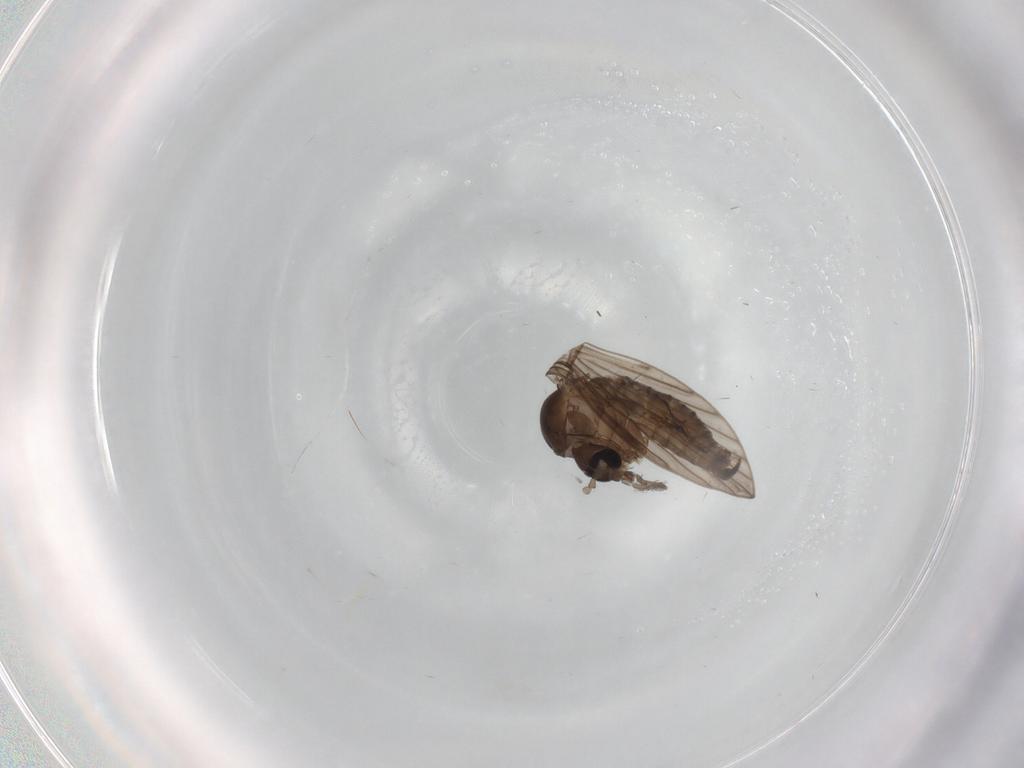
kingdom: Animalia
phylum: Arthropoda
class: Insecta
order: Diptera
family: Psychodidae
